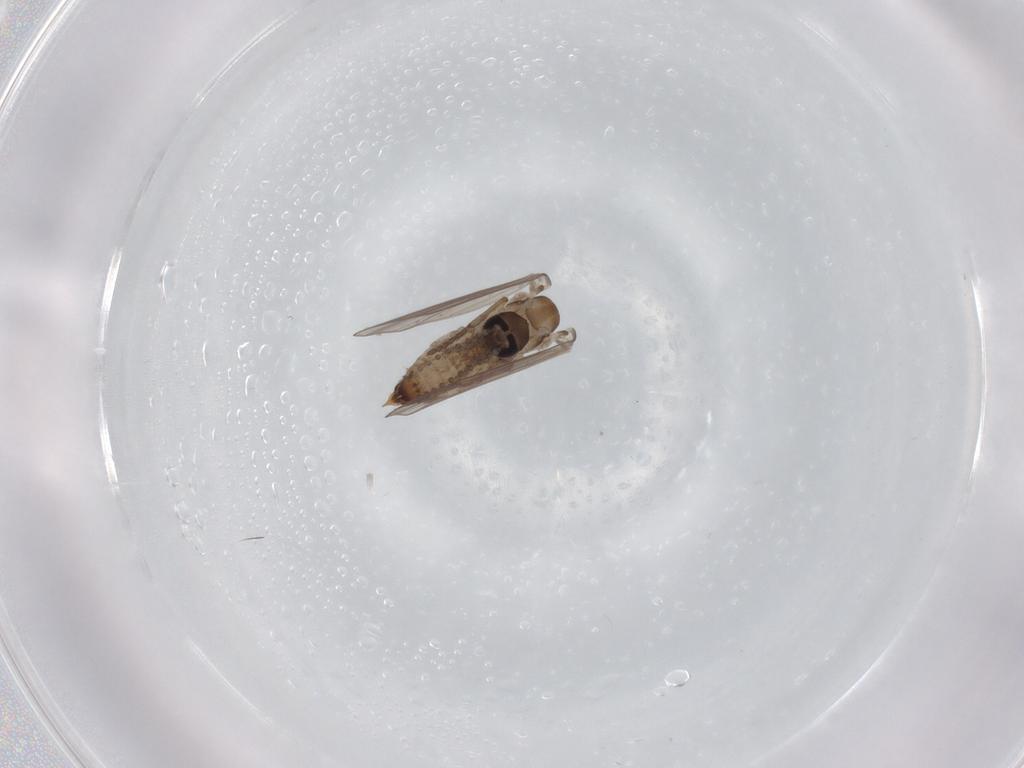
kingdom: Animalia
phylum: Arthropoda
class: Insecta
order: Diptera
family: Psychodidae
